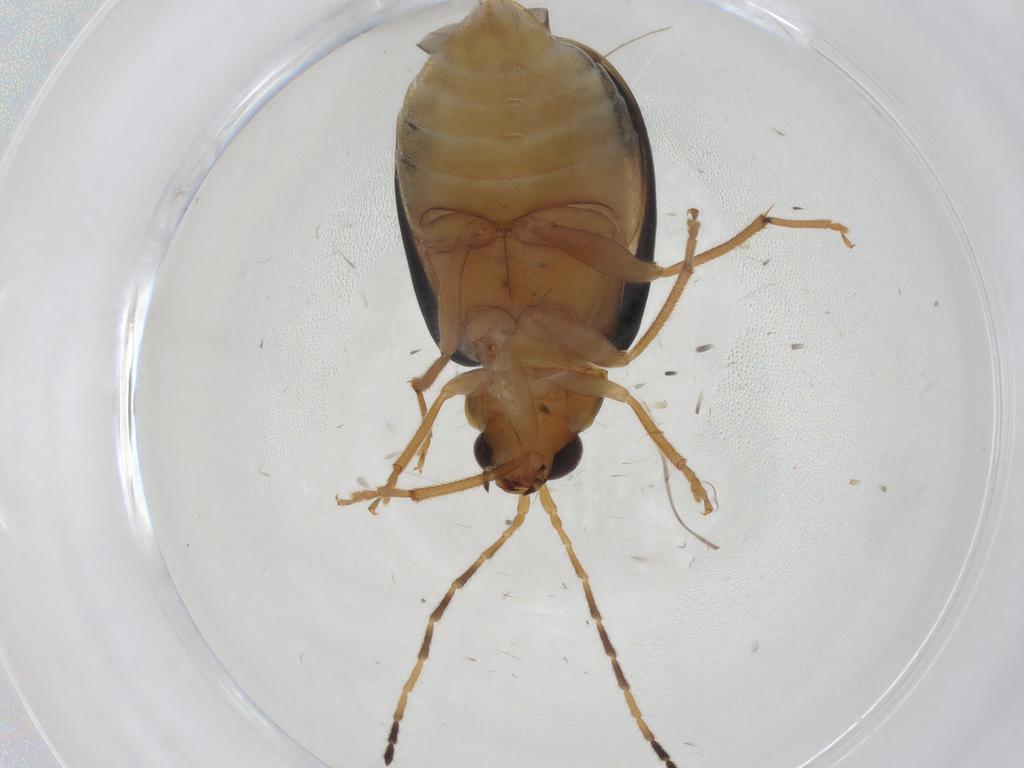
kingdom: Animalia
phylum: Arthropoda
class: Insecta
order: Coleoptera
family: Chrysomelidae
